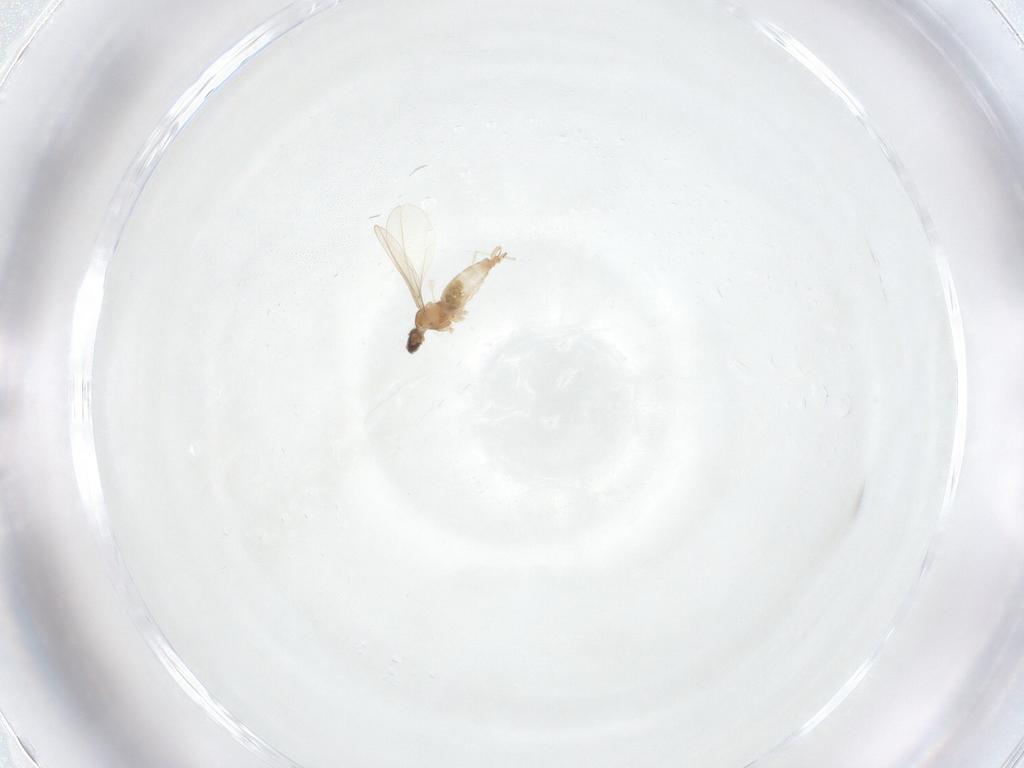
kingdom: Animalia
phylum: Arthropoda
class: Insecta
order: Diptera
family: Cecidomyiidae
